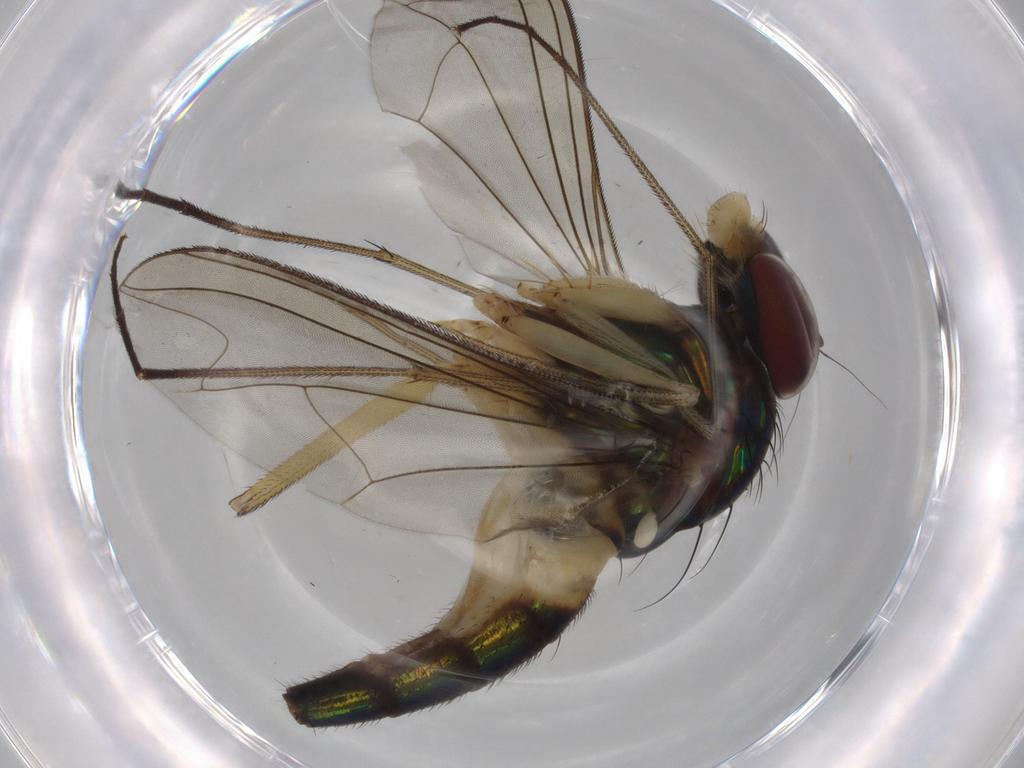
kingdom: Animalia
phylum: Arthropoda
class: Insecta
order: Diptera
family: Dolichopodidae
